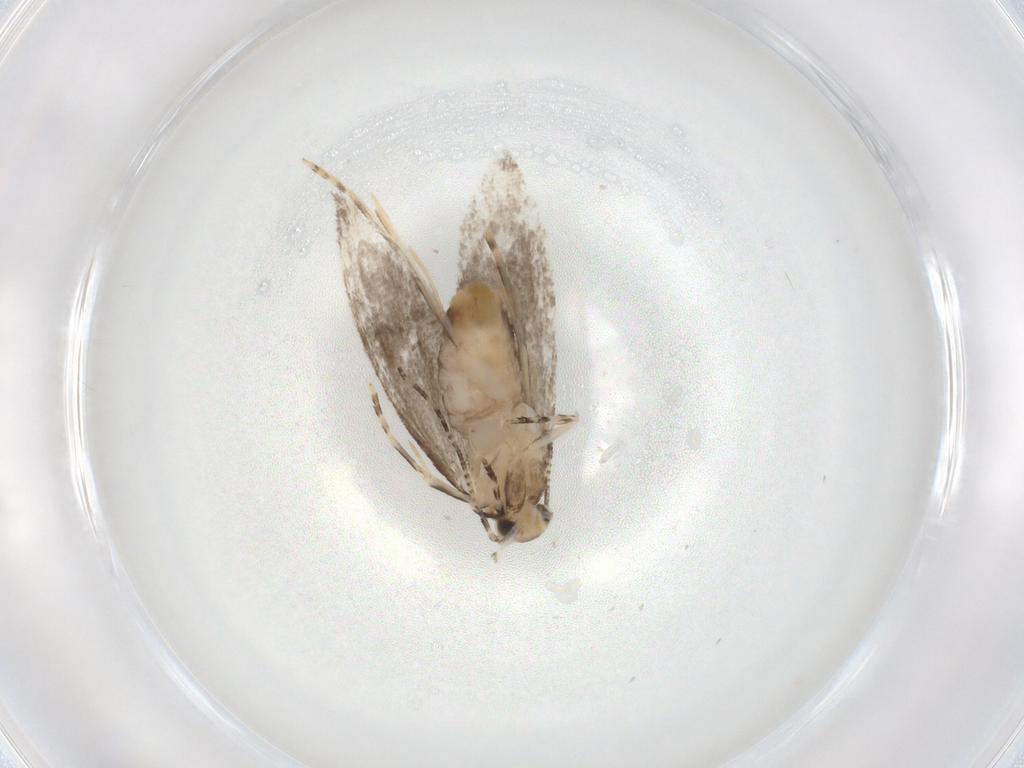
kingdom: Animalia
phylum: Arthropoda
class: Insecta
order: Lepidoptera
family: Tineidae
